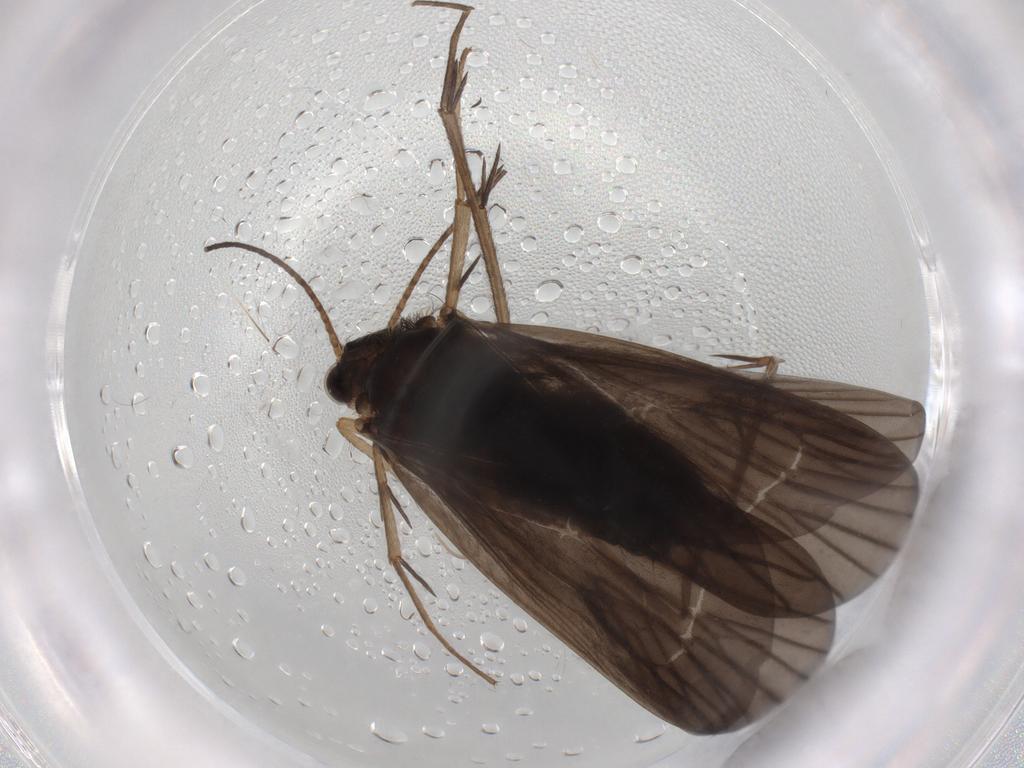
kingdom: Animalia
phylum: Arthropoda
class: Insecta
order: Trichoptera
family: Philopotamidae
